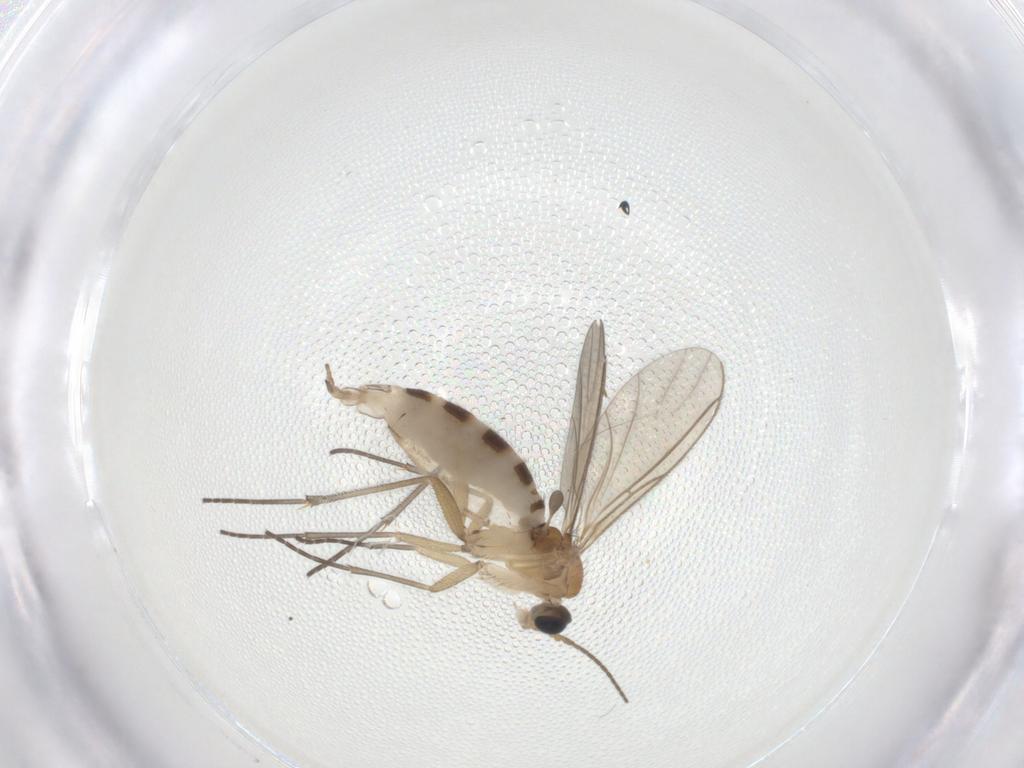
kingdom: Animalia
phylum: Arthropoda
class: Insecta
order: Diptera
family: Sciaridae
